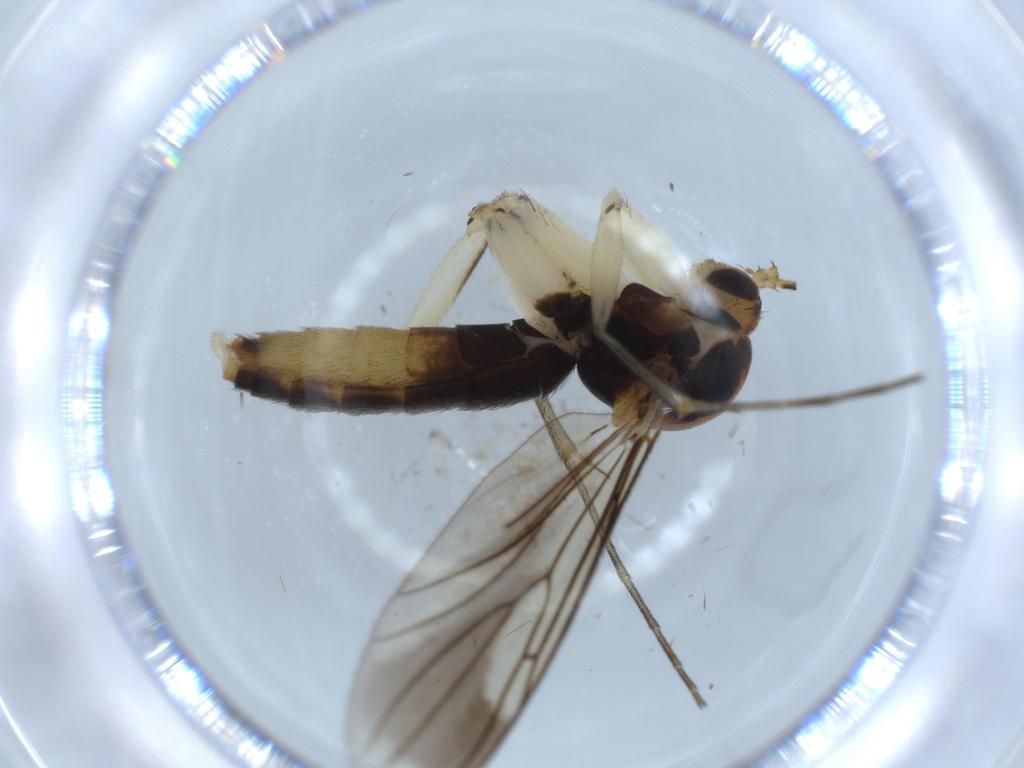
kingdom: Animalia
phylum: Arthropoda
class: Insecta
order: Diptera
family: Mycetophilidae
